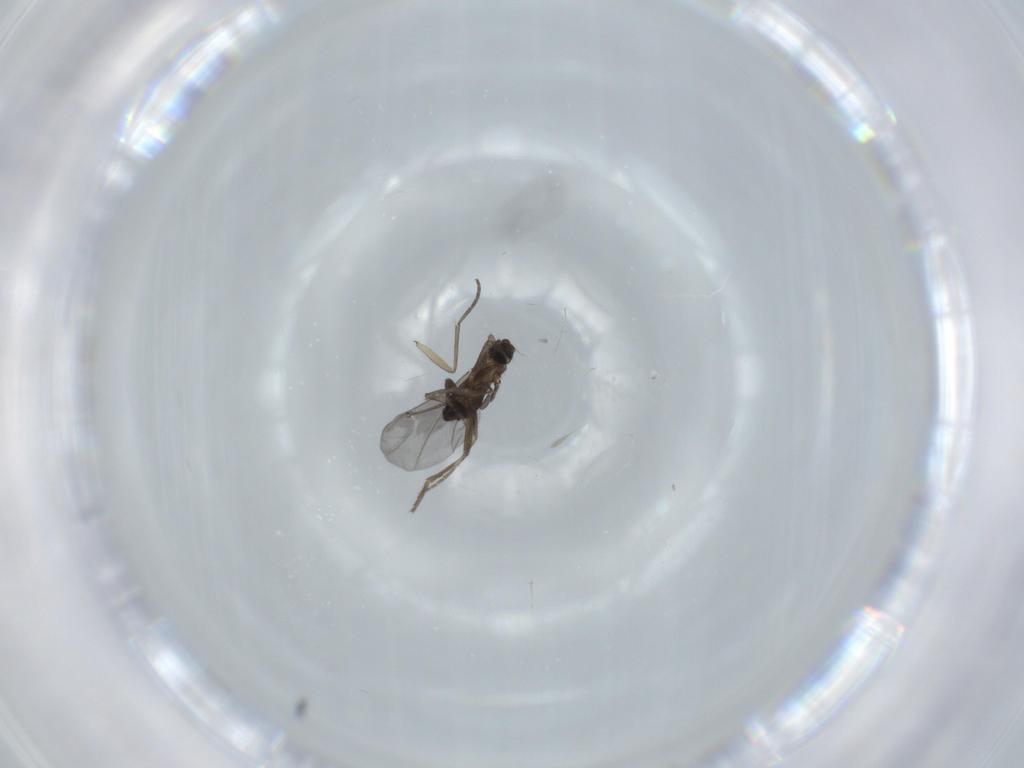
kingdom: Animalia
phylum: Arthropoda
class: Insecta
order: Diptera
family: Phoridae
